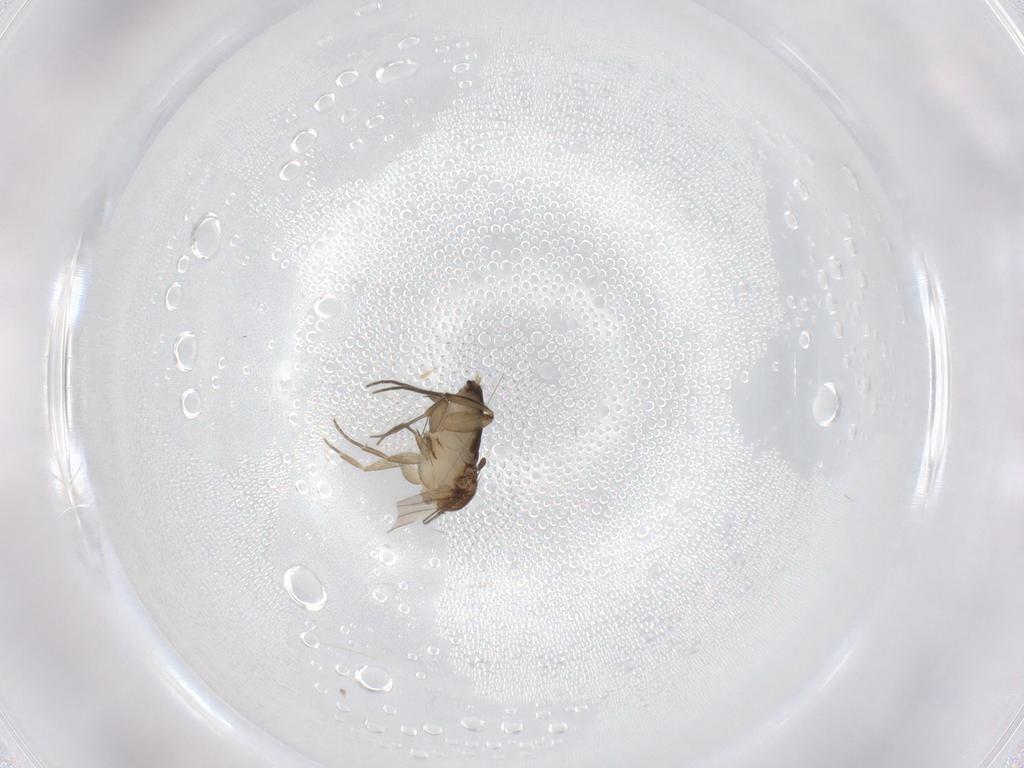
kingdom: Animalia
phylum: Arthropoda
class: Insecta
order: Diptera
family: Phoridae
